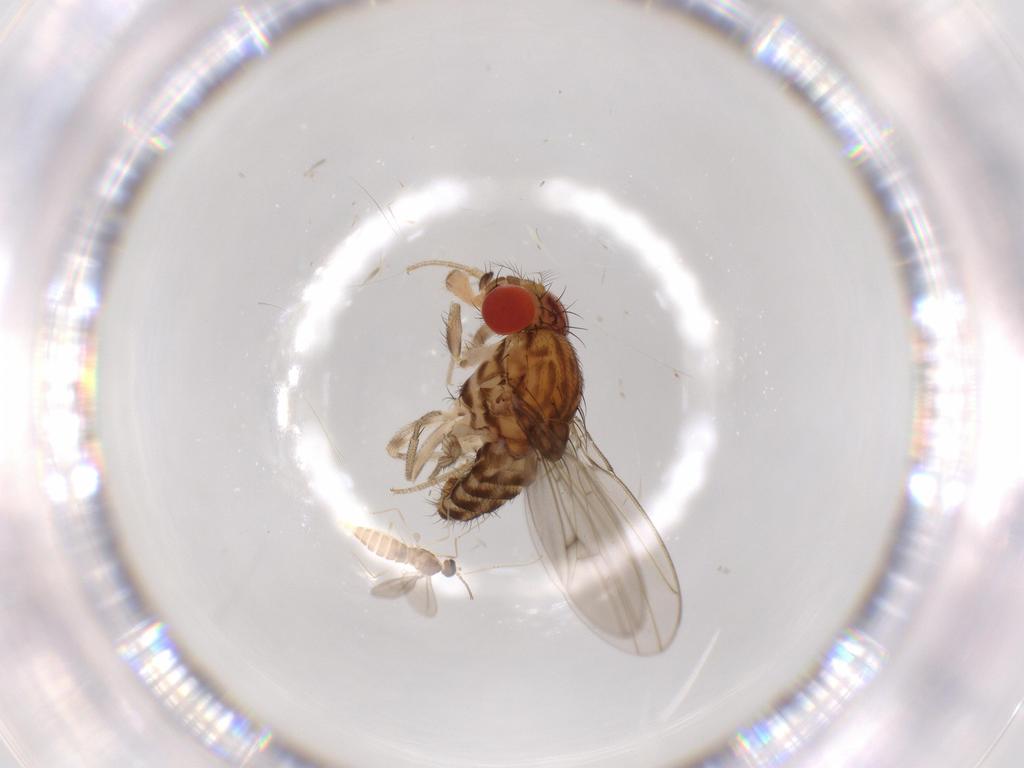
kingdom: Animalia
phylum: Arthropoda
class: Insecta
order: Diptera
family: Drosophilidae
